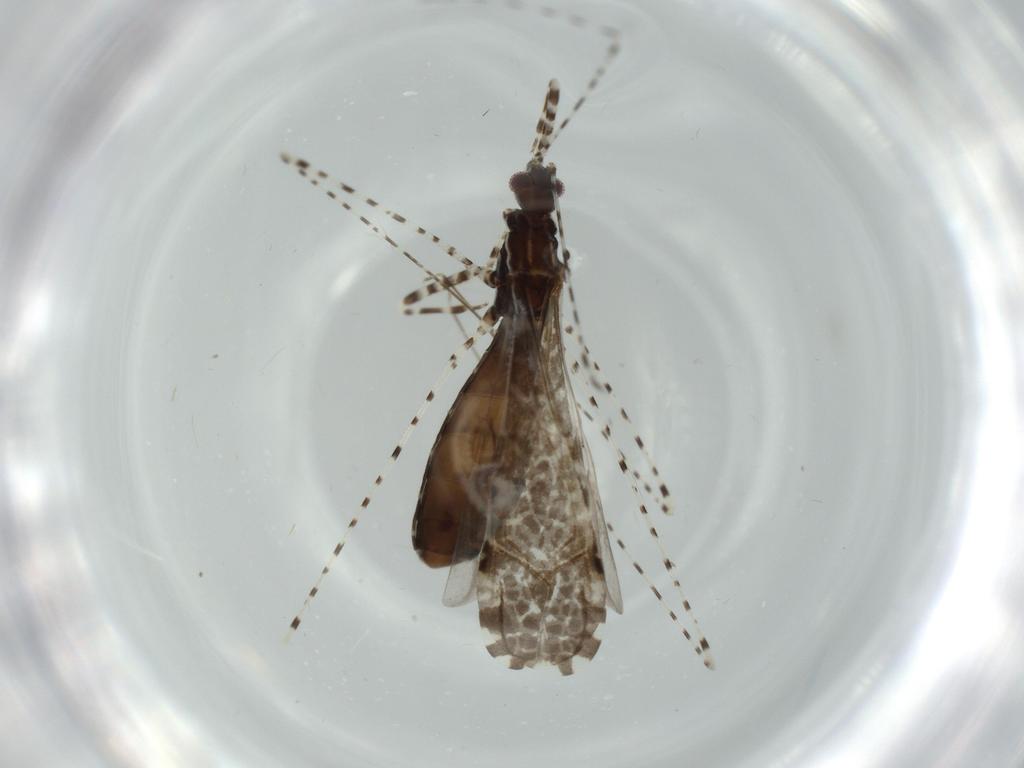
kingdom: Animalia
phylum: Arthropoda
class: Insecta
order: Hemiptera
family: Reduviidae
